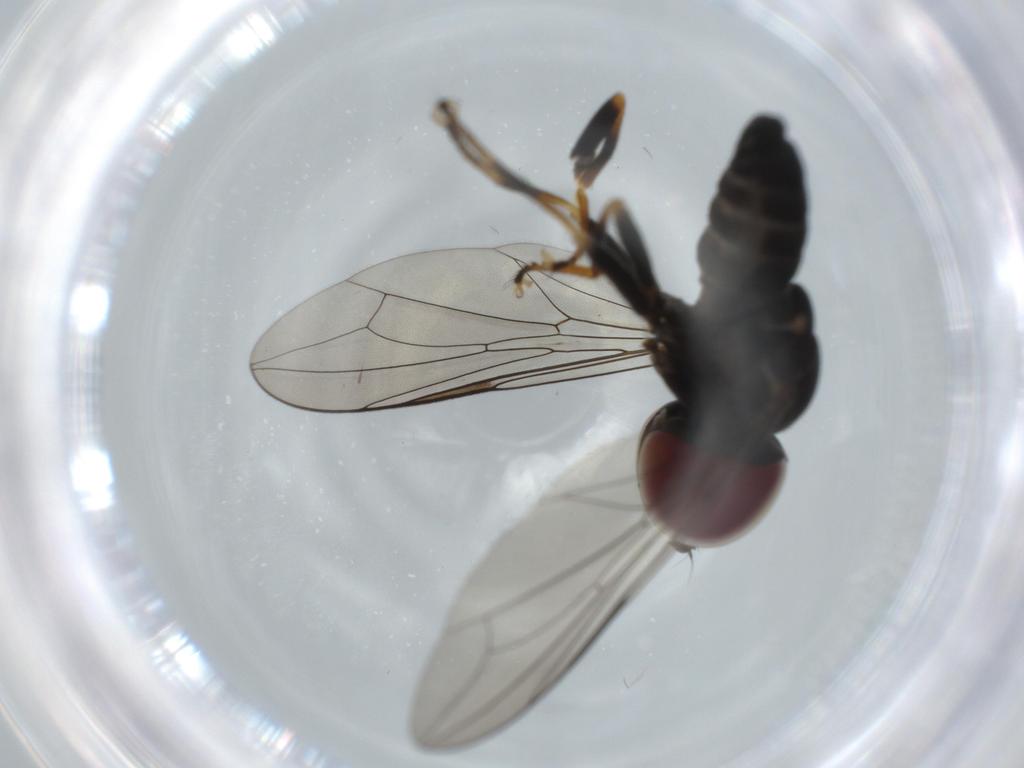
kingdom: Animalia
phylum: Arthropoda
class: Insecta
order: Diptera
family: Pipunculidae
